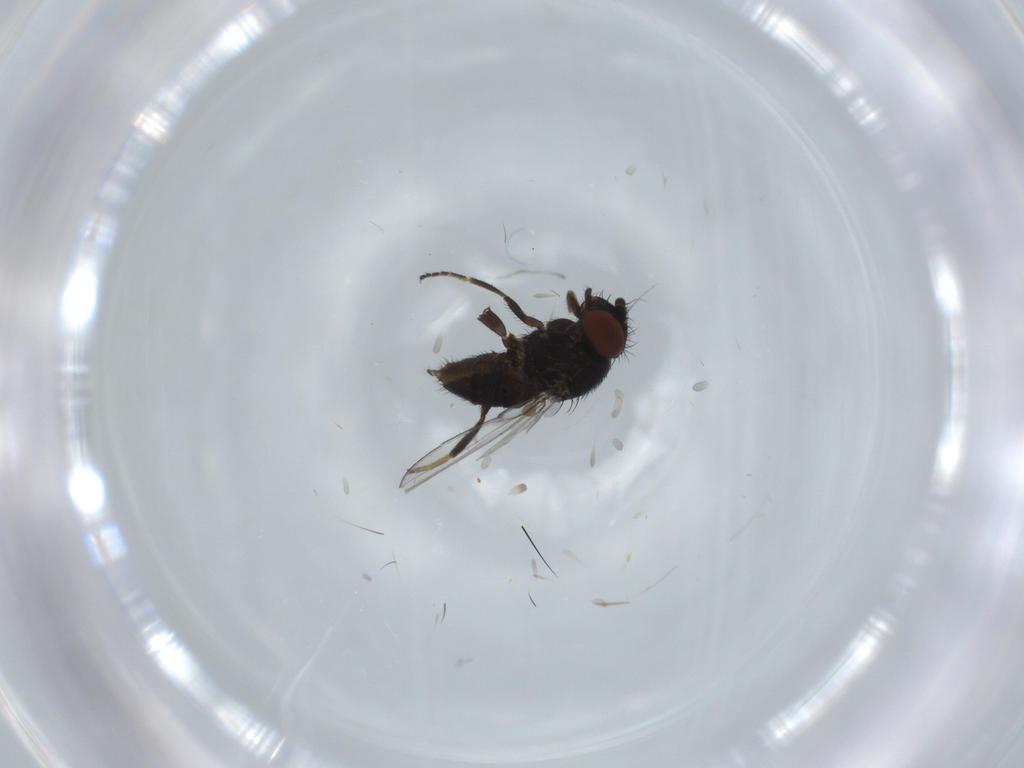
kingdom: Animalia
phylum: Arthropoda
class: Insecta
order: Diptera
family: Milichiidae
